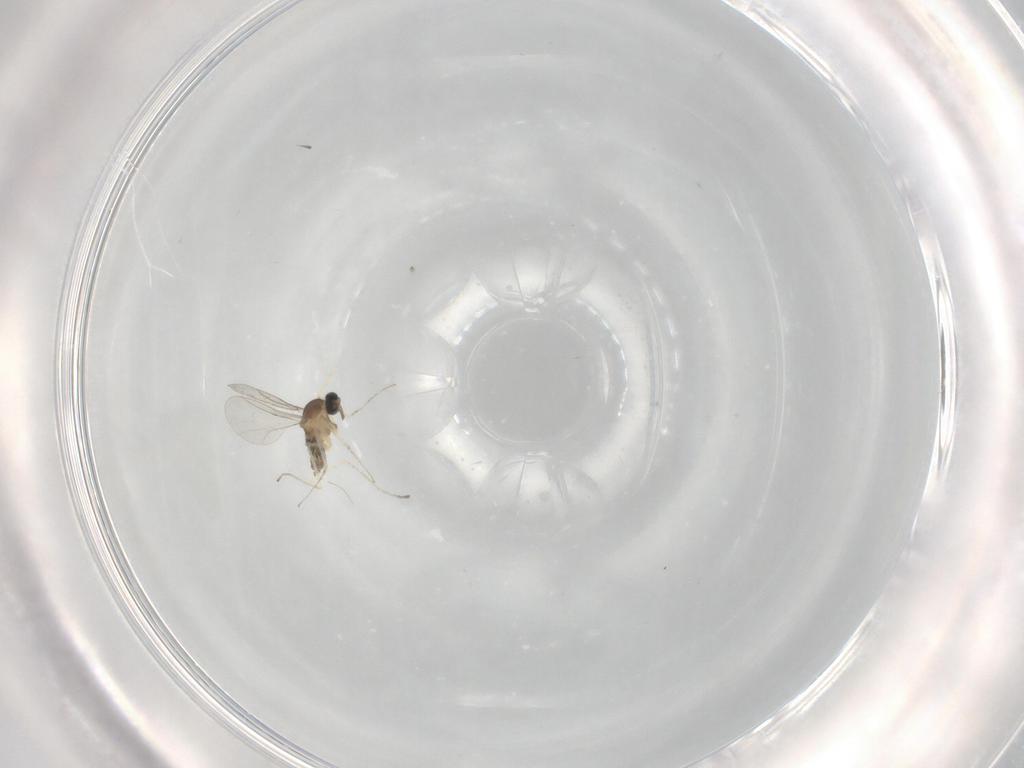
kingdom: Animalia
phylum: Arthropoda
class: Insecta
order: Diptera
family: Cecidomyiidae
